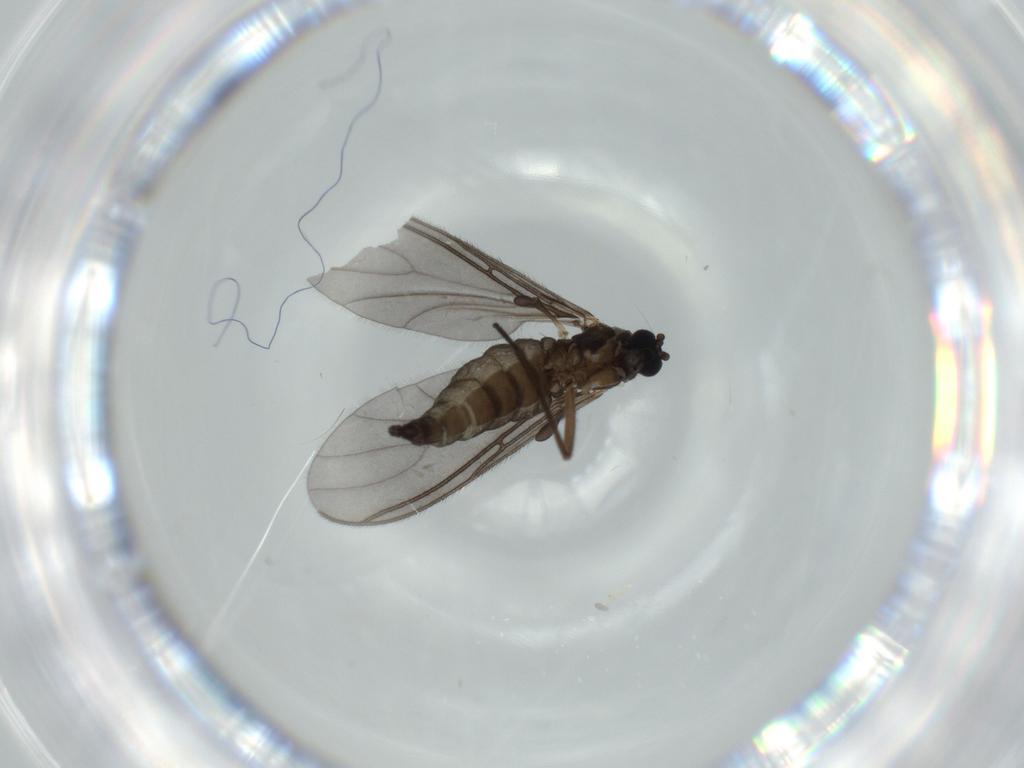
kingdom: Animalia
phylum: Arthropoda
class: Insecta
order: Diptera
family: Sciaridae
